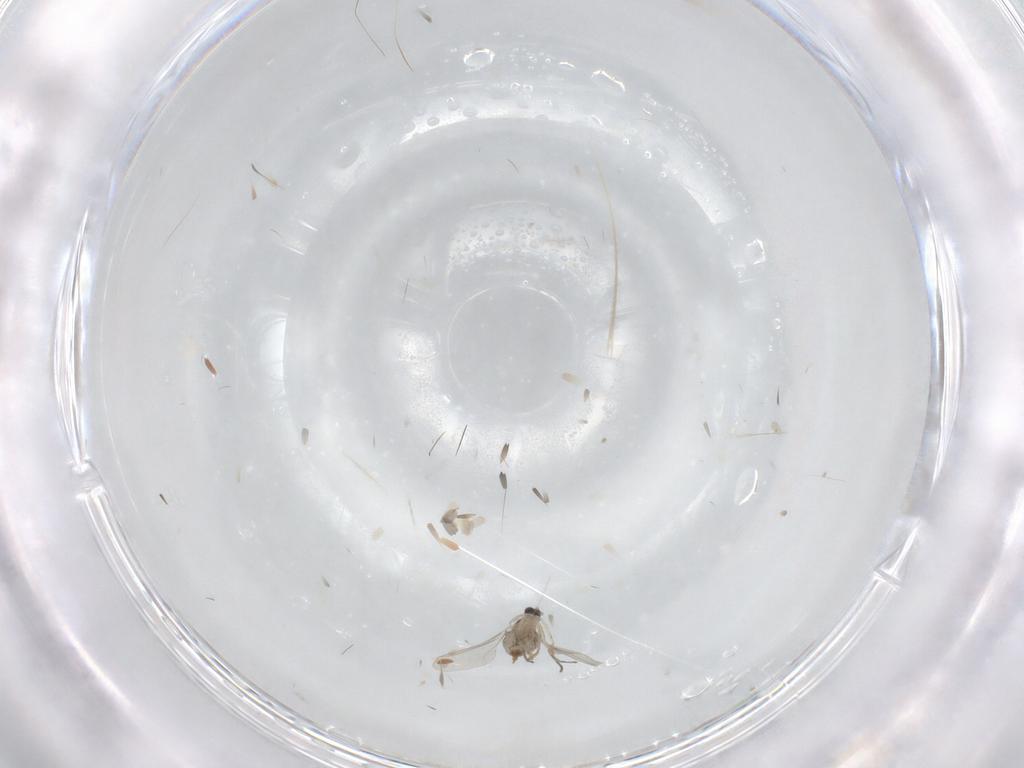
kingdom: Animalia
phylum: Arthropoda
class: Insecta
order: Diptera
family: Cecidomyiidae
